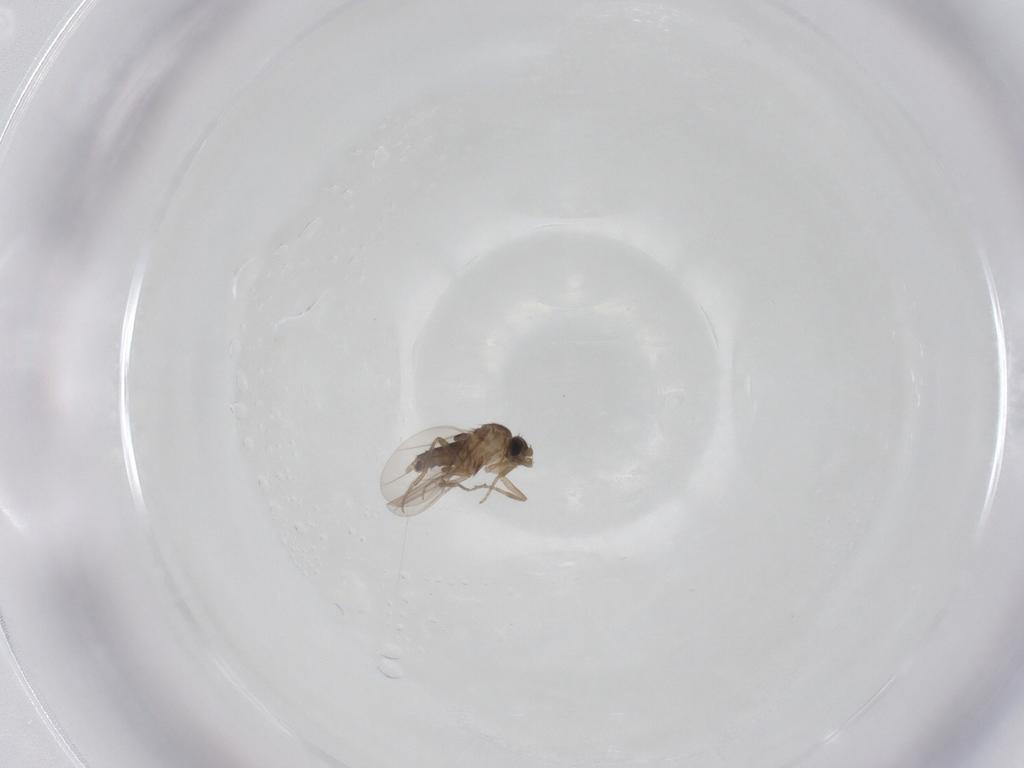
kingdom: Animalia
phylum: Arthropoda
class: Insecta
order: Diptera
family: Phoridae
